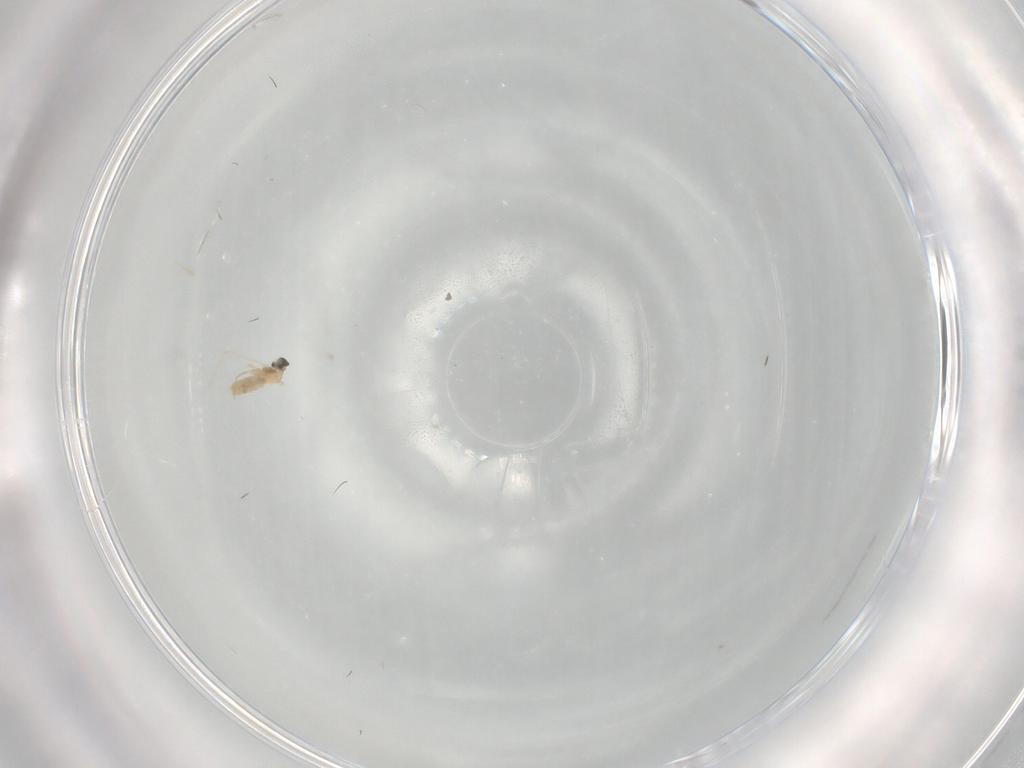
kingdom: Animalia
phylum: Arthropoda
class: Insecta
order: Diptera
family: Cecidomyiidae
